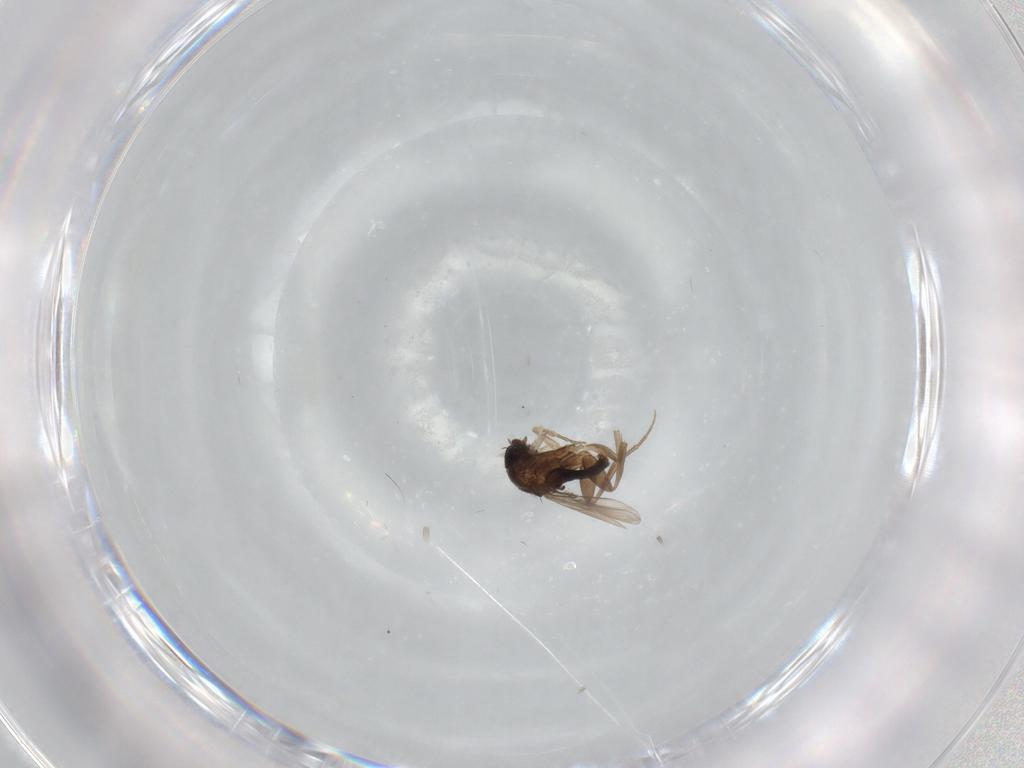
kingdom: Animalia
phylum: Arthropoda
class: Insecta
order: Diptera
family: Phoridae
